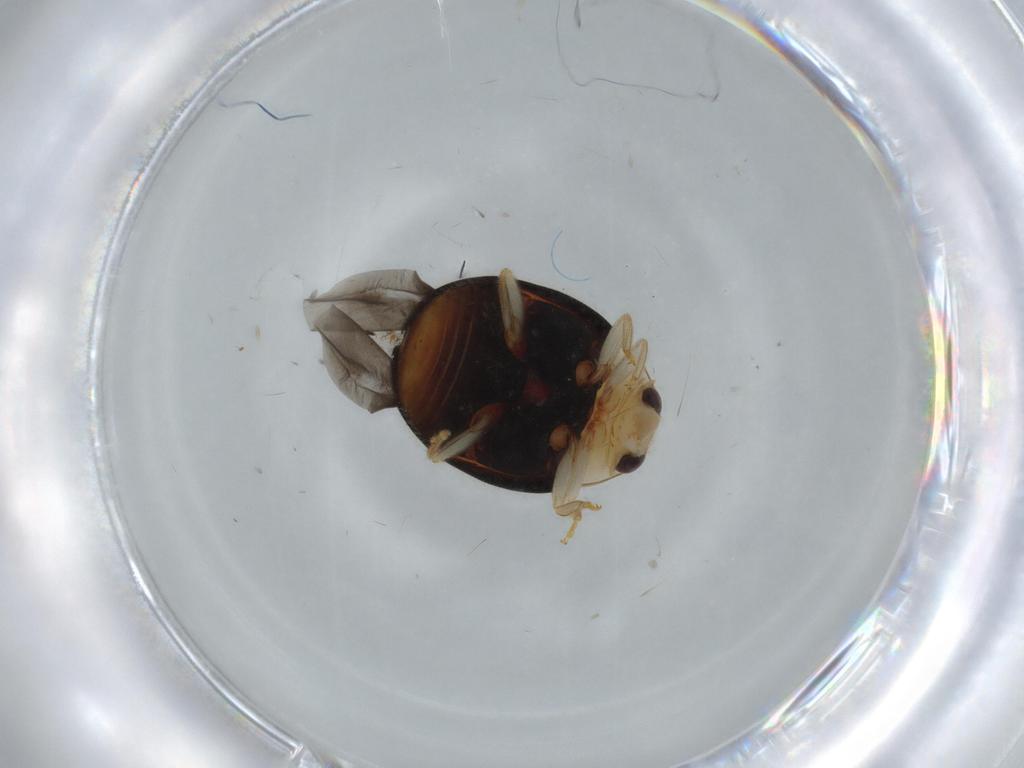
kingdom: Animalia
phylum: Arthropoda
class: Insecta
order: Coleoptera
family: Coccinellidae
